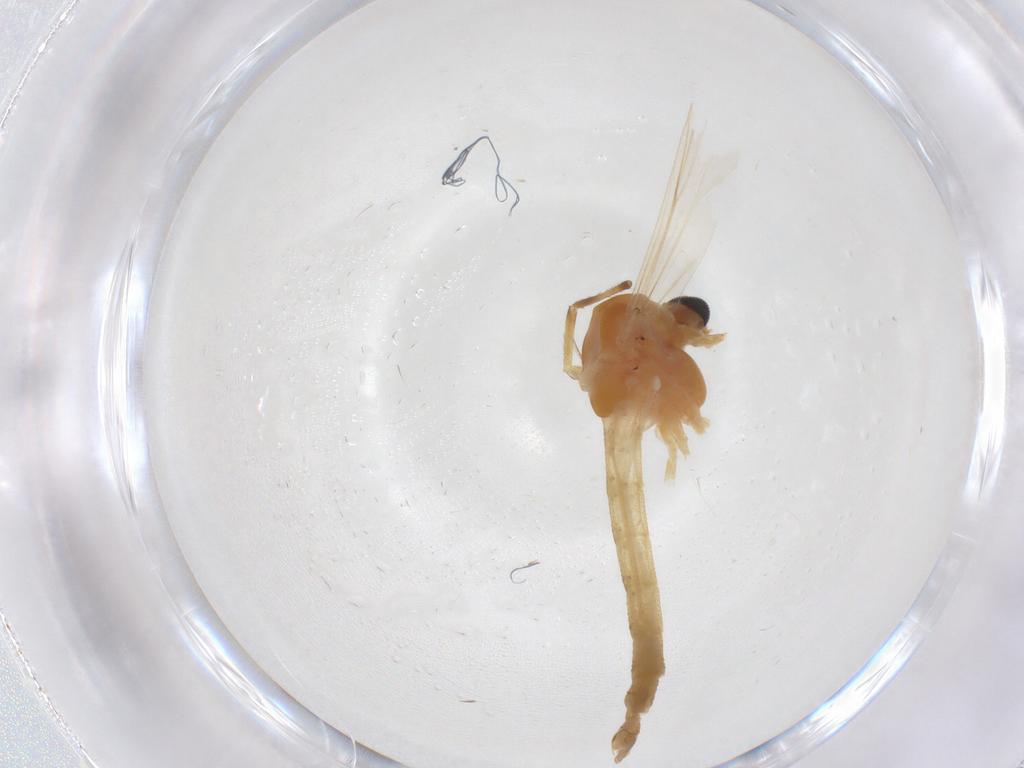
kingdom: Animalia
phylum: Arthropoda
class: Insecta
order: Diptera
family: Chironomidae
